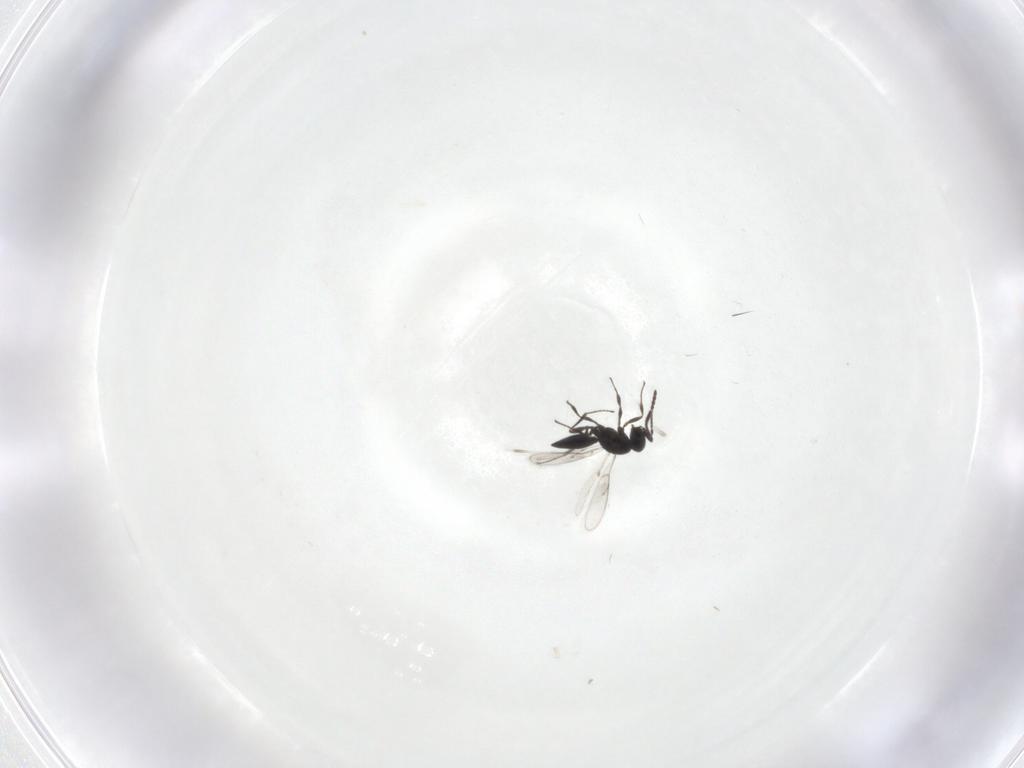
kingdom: Animalia
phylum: Arthropoda
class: Insecta
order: Hymenoptera
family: Scelionidae
